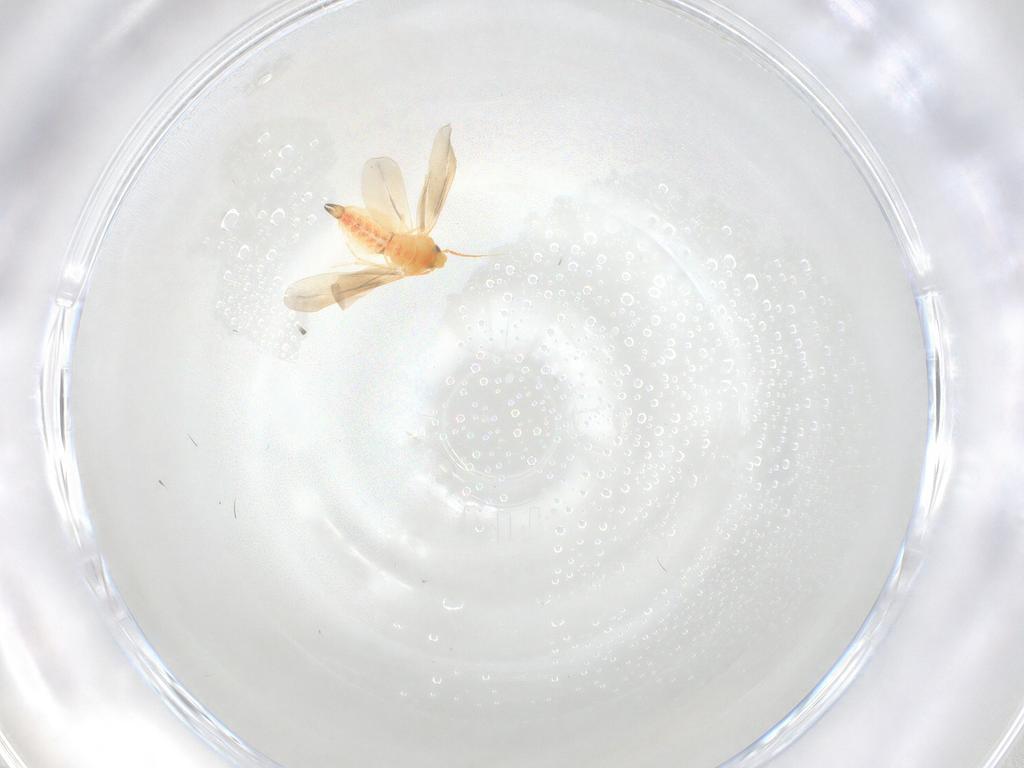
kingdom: Animalia
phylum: Arthropoda
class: Insecta
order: Hemiptera
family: Aleyrodidae
